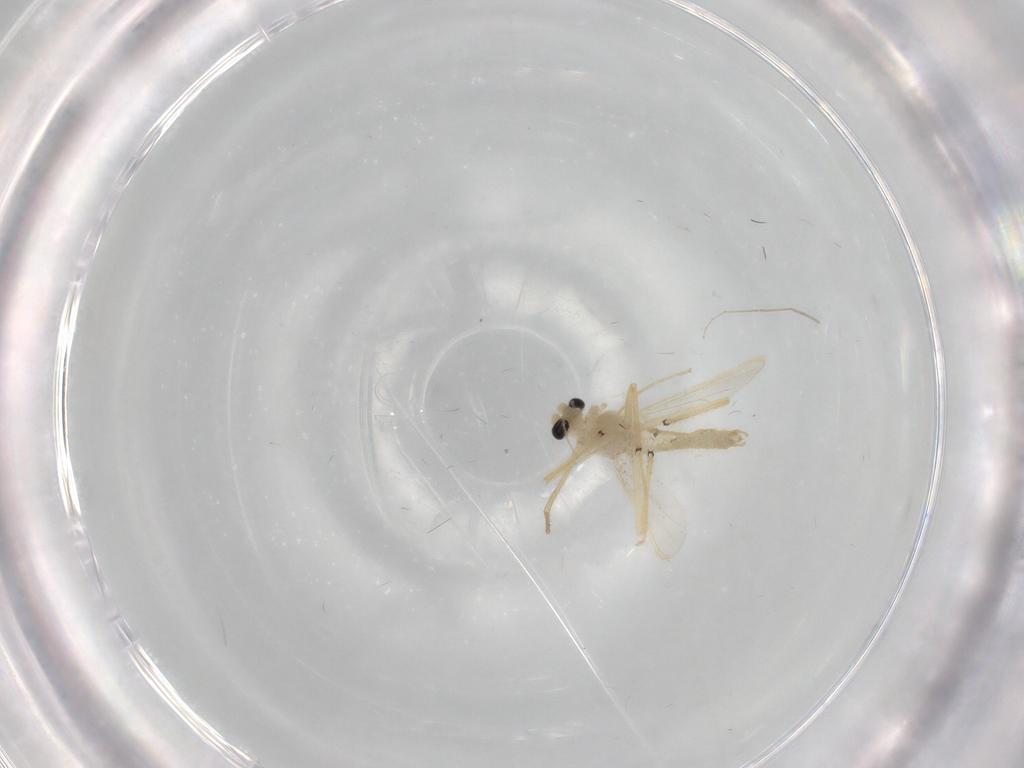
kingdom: Animalia
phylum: Arthropoda
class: Insecta
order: Diptera
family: Chironomidae
